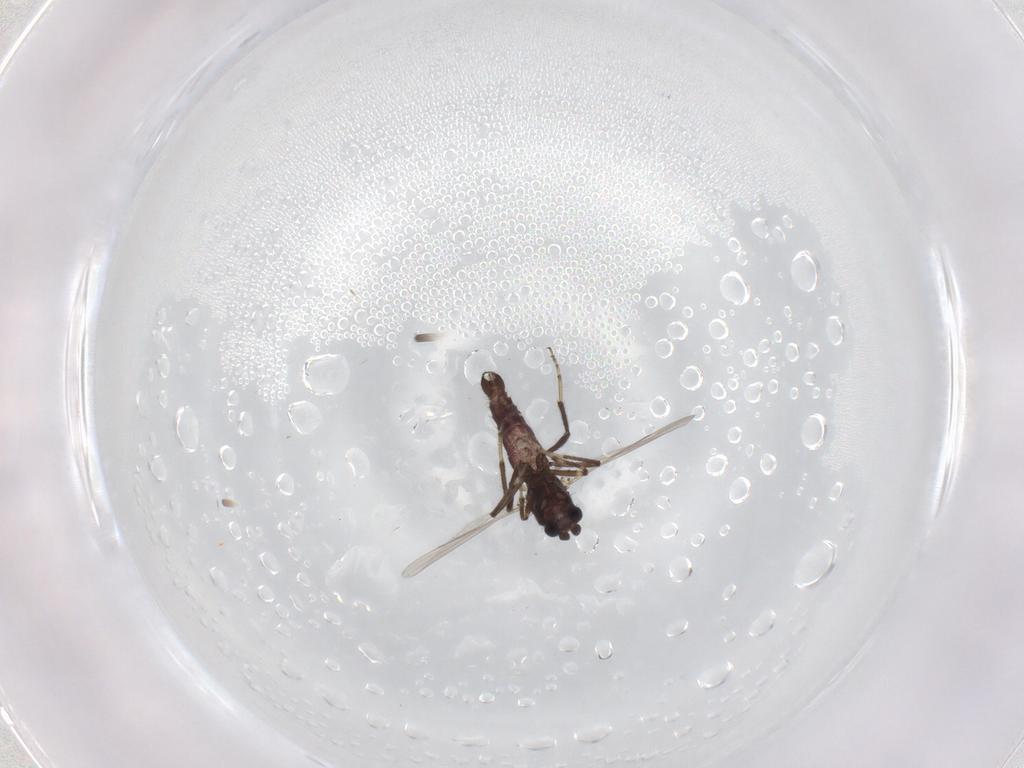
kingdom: Animalia
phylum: Arthropoda
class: Insecta
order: Diptera
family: Ceratopogonidae
